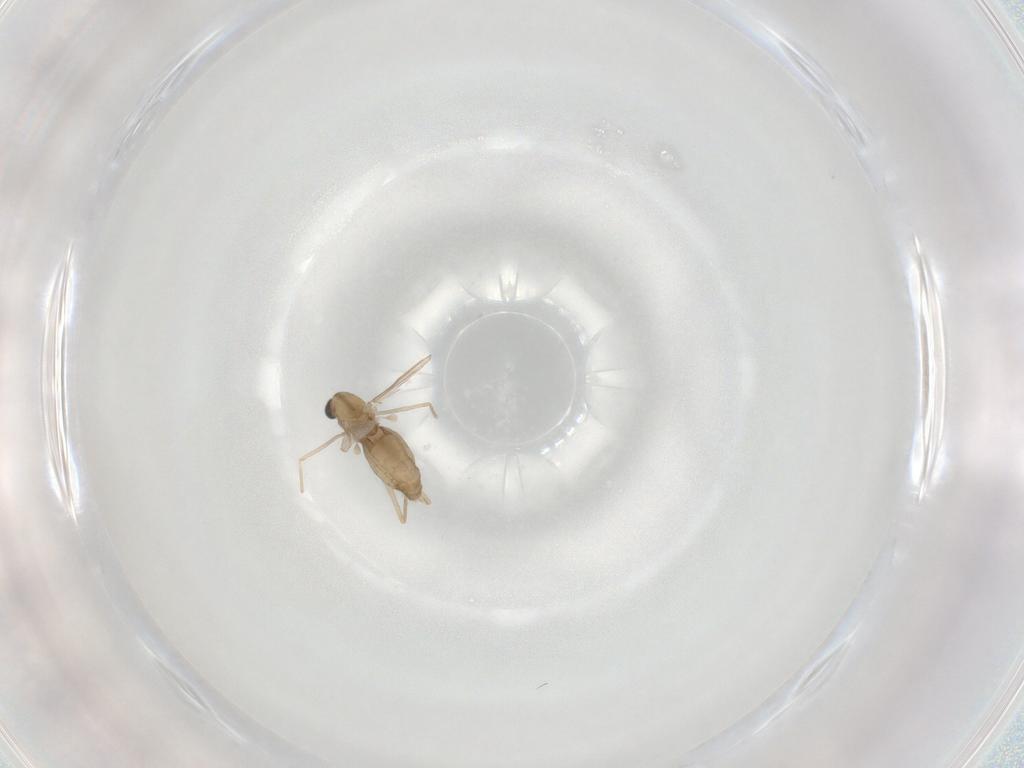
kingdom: Animalia
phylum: Arthropoda
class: Insecta
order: Diptera
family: Chironomidae
